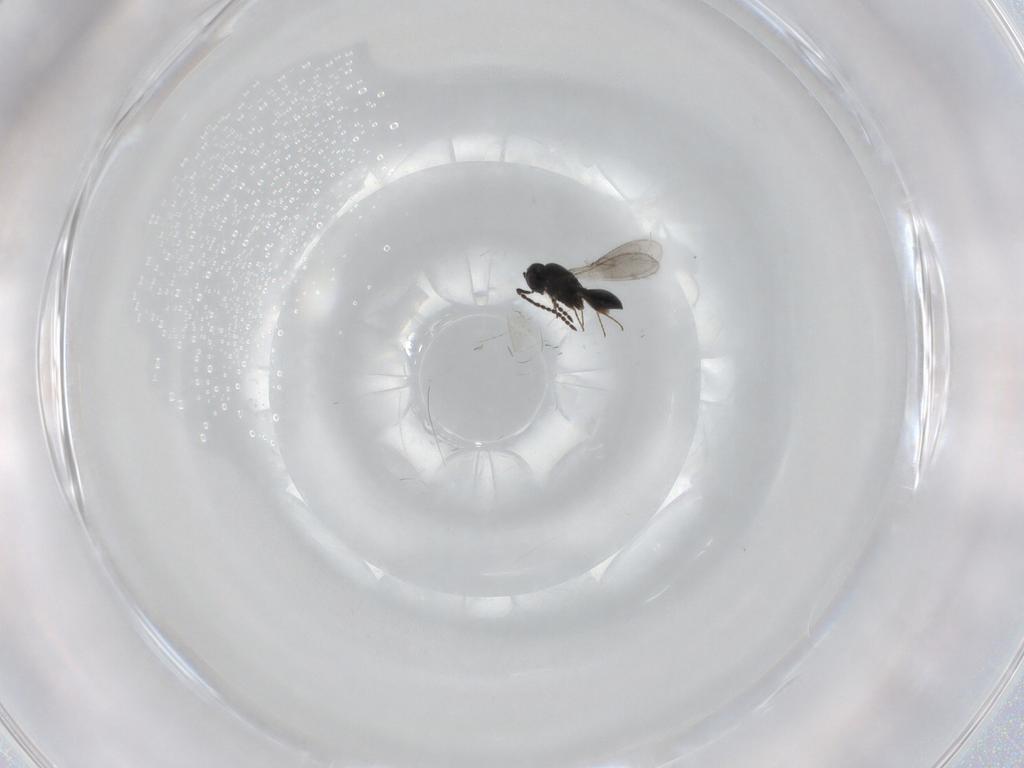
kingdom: Animalia
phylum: Arthropoda
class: Insecta
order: Hymenoptera
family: Scelionidae
